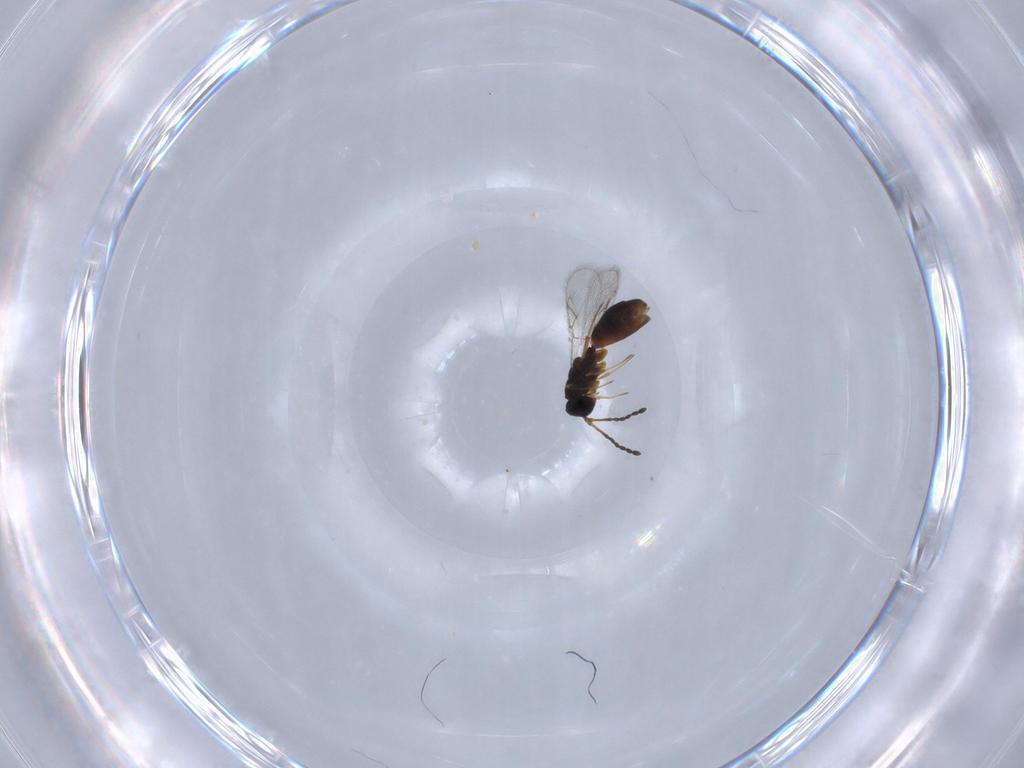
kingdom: Animalia
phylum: Arthropoda
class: Insecta
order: Hymenoptera
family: Figitidae
